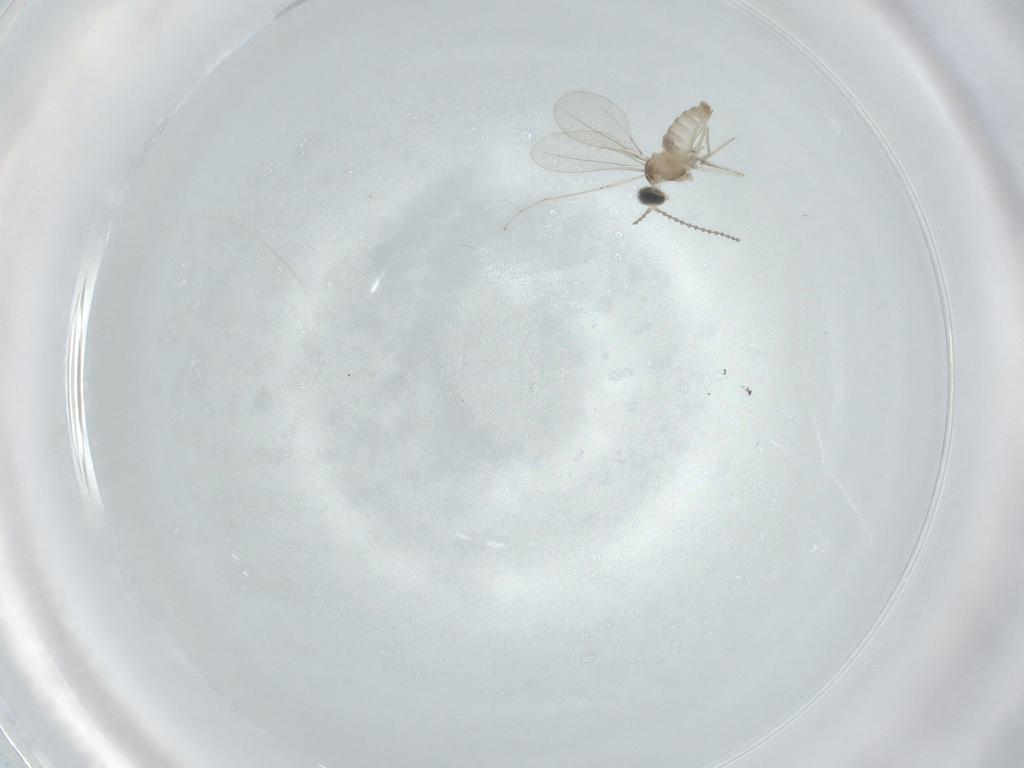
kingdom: Animalia
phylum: Arthropoda
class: Insecta
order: Diptera
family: Cecidomyiidae
